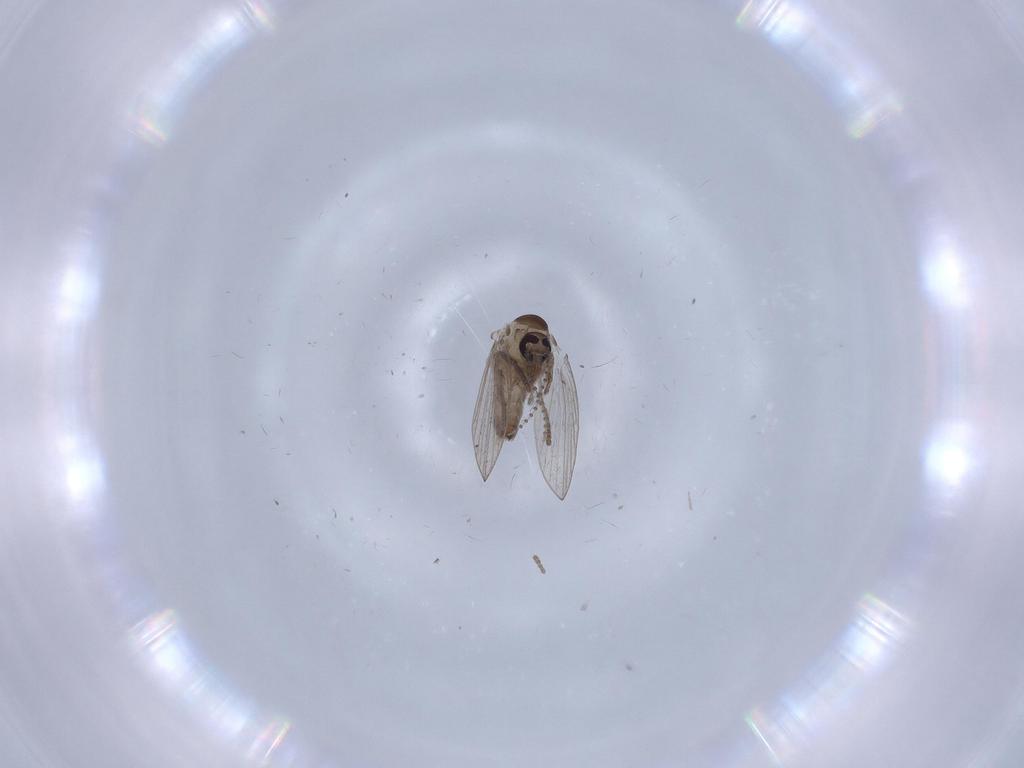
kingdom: Animalia
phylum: Arthropoda
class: Insecta
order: Diptera
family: Psychodidae
